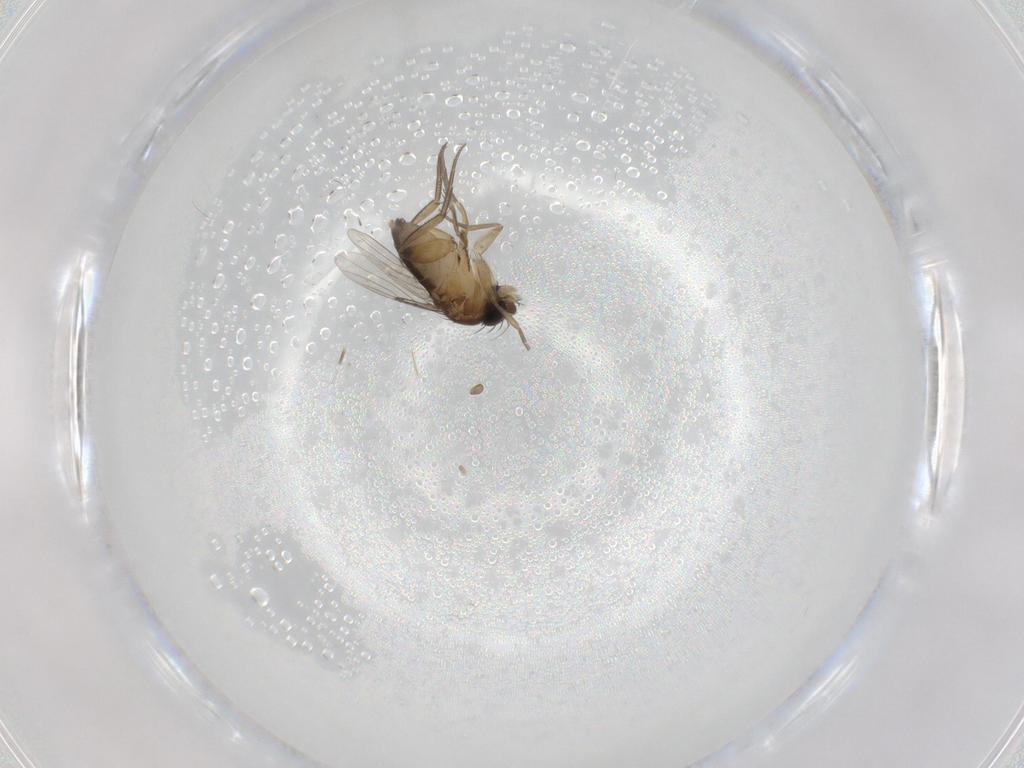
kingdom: Animalia
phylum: Arthropoda
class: Insecta
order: Diptera
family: Phoridae
